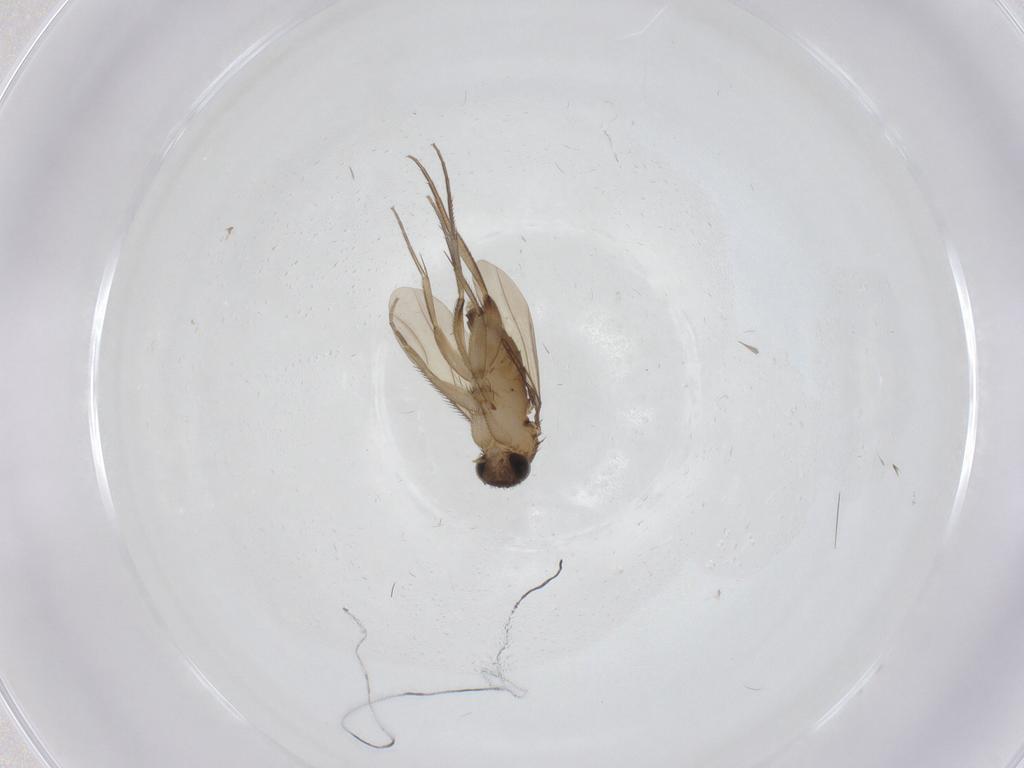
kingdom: Animalia
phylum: Arthropoda
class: Insecta
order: Diptera
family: Phoridae
